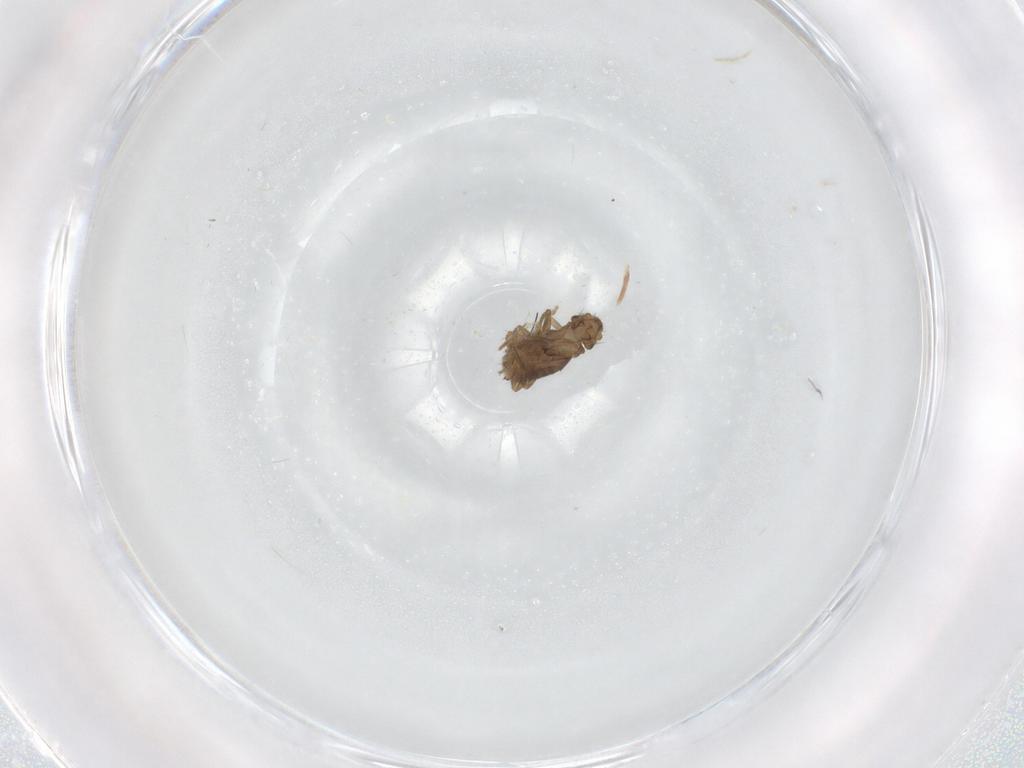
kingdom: Animalia
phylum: Arthropoda
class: Insecta
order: Diptera
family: Phoridae
